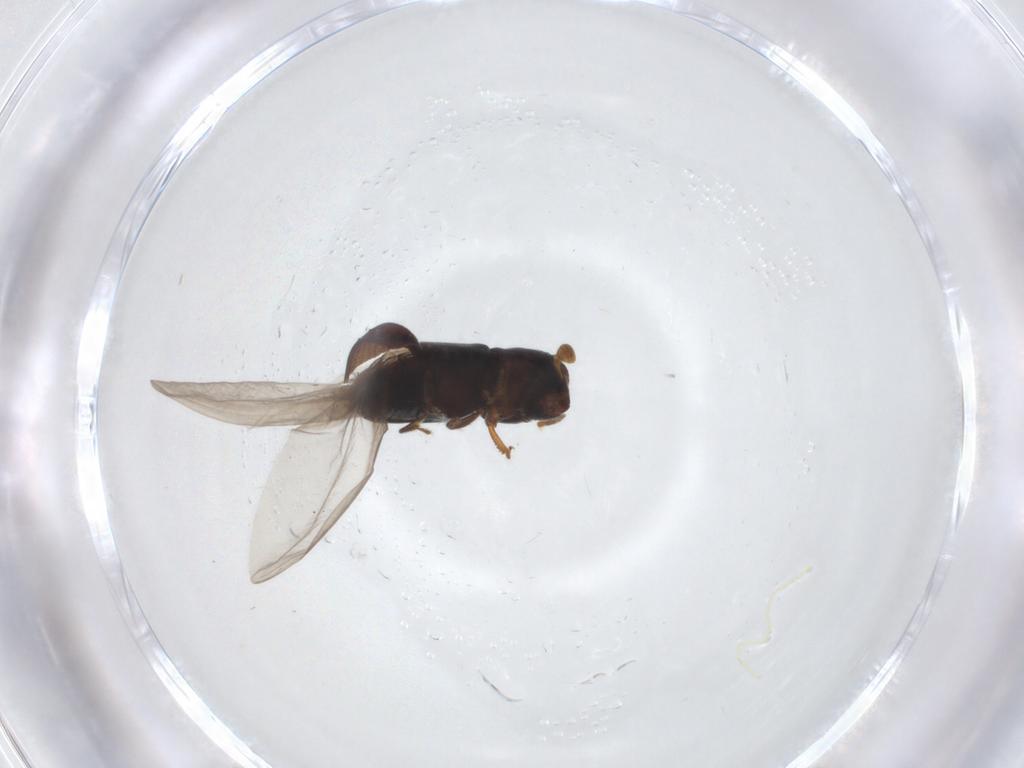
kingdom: Animalia
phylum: Arthropoda
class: Insecta
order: Coleoptera
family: Curculionidae
